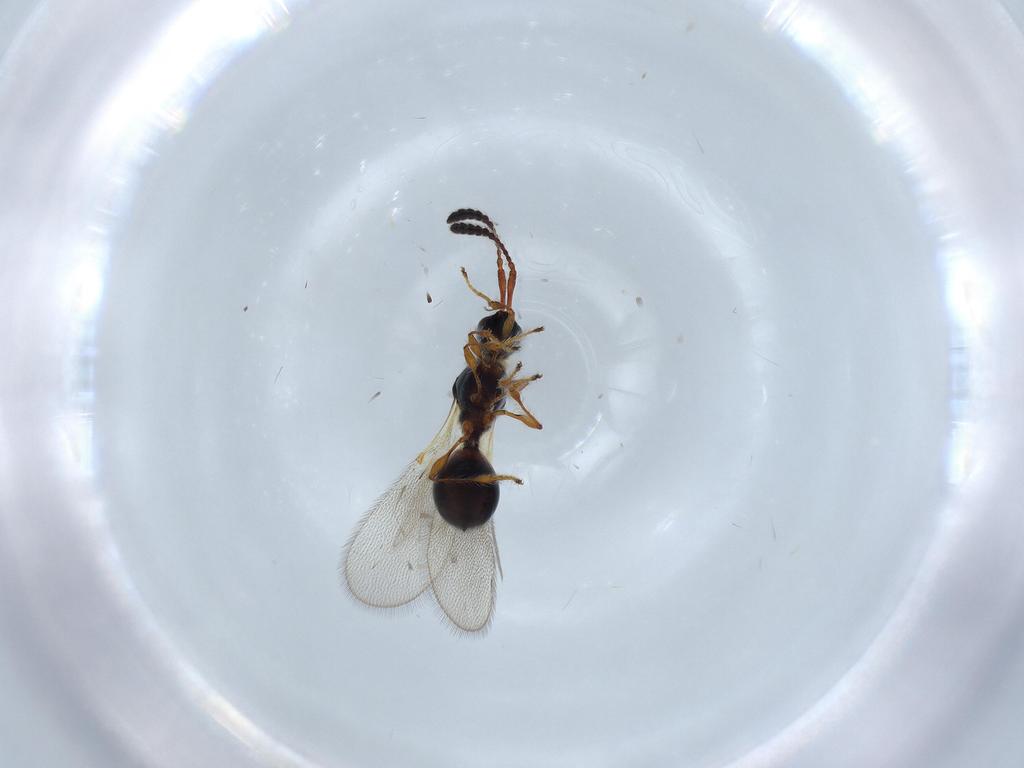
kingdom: Animalia
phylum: Arthropoda
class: Insecta
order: Hymenoptera
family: Diapriidae
